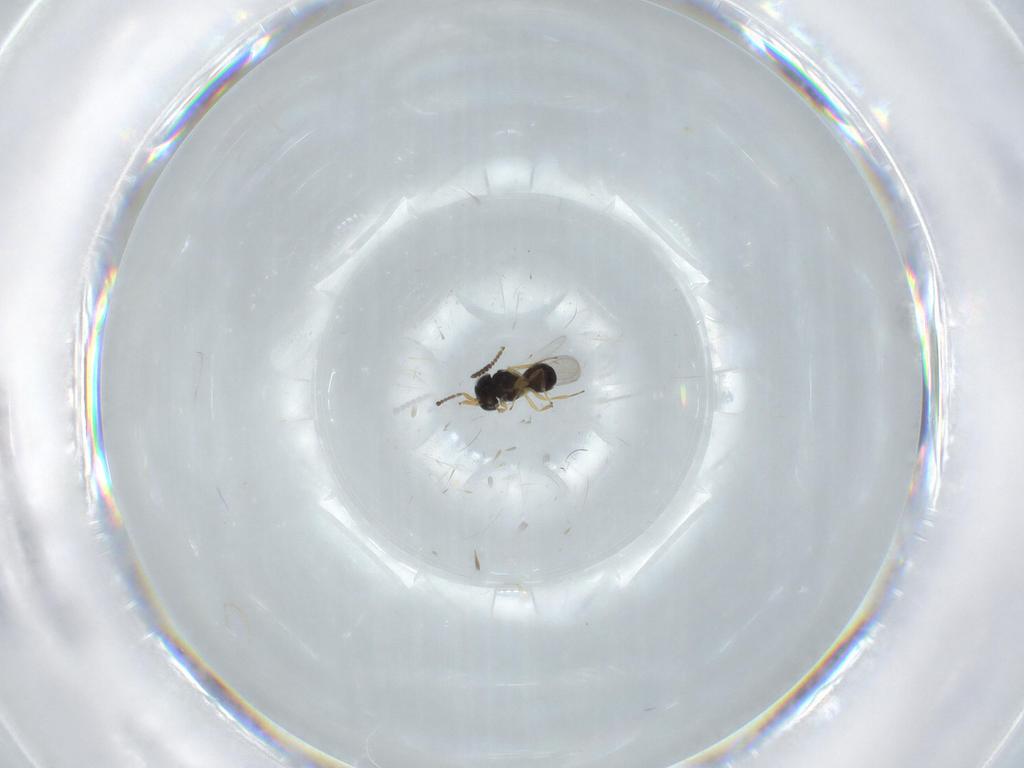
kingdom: Animalia
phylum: Arthropoda
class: Insecta
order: Hymenoptera
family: Scelionidae
